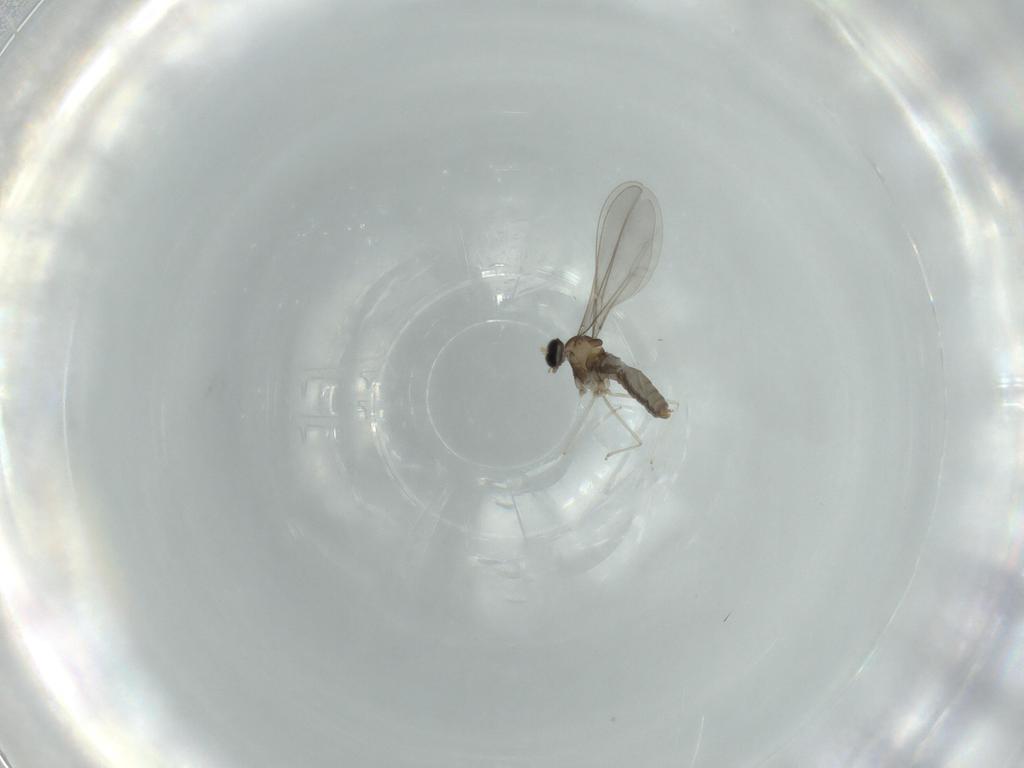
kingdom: Animalia
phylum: Arthropoda
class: Insecta
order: Diptera
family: Cecidomyiidae
